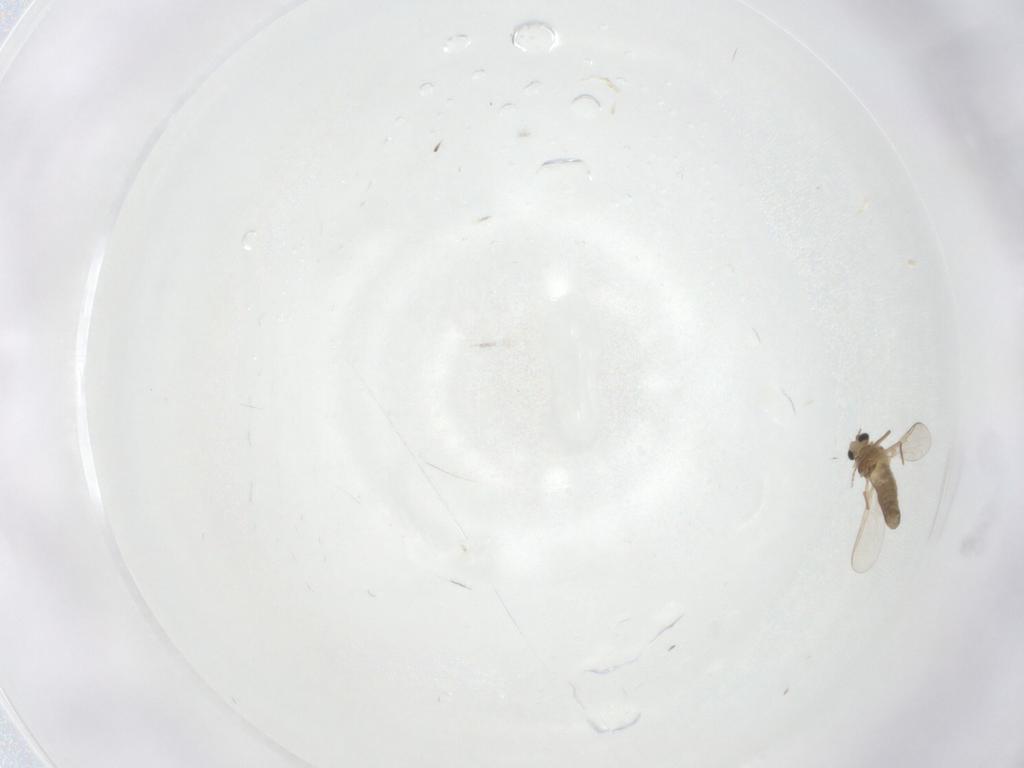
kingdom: Animalia
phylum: Arthropoda
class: Insecta
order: Diptera
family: Chironomidae
